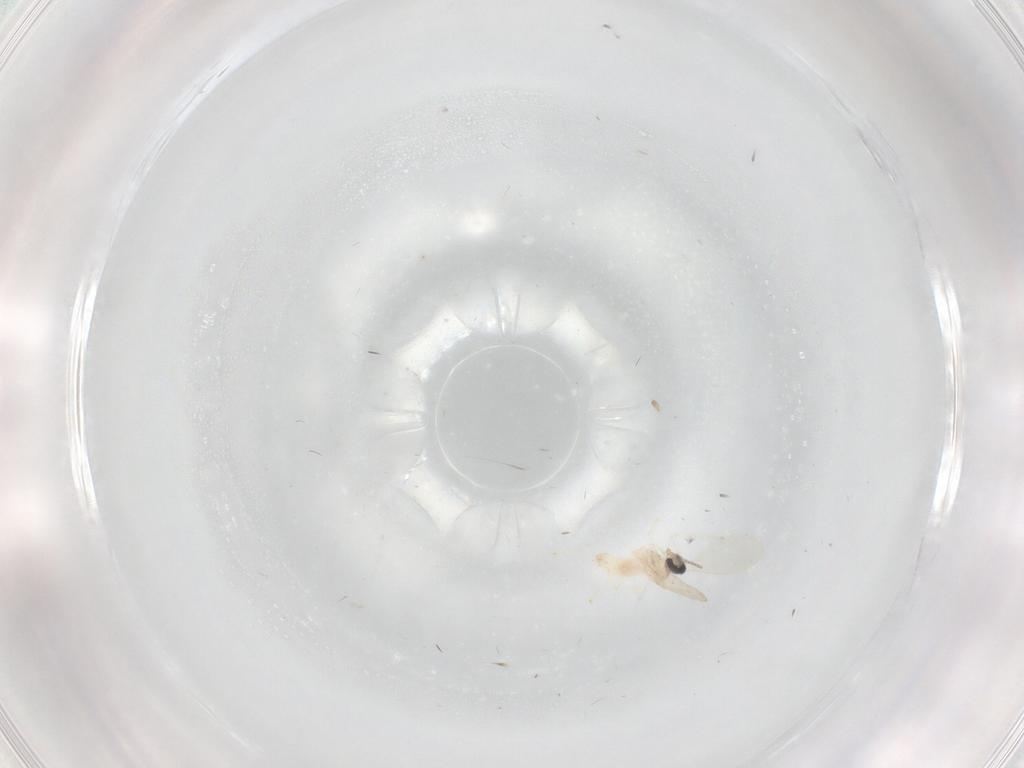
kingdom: Animalia
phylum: Arthropoda
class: Insecta
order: Diptera
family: Cecidomyiidae
